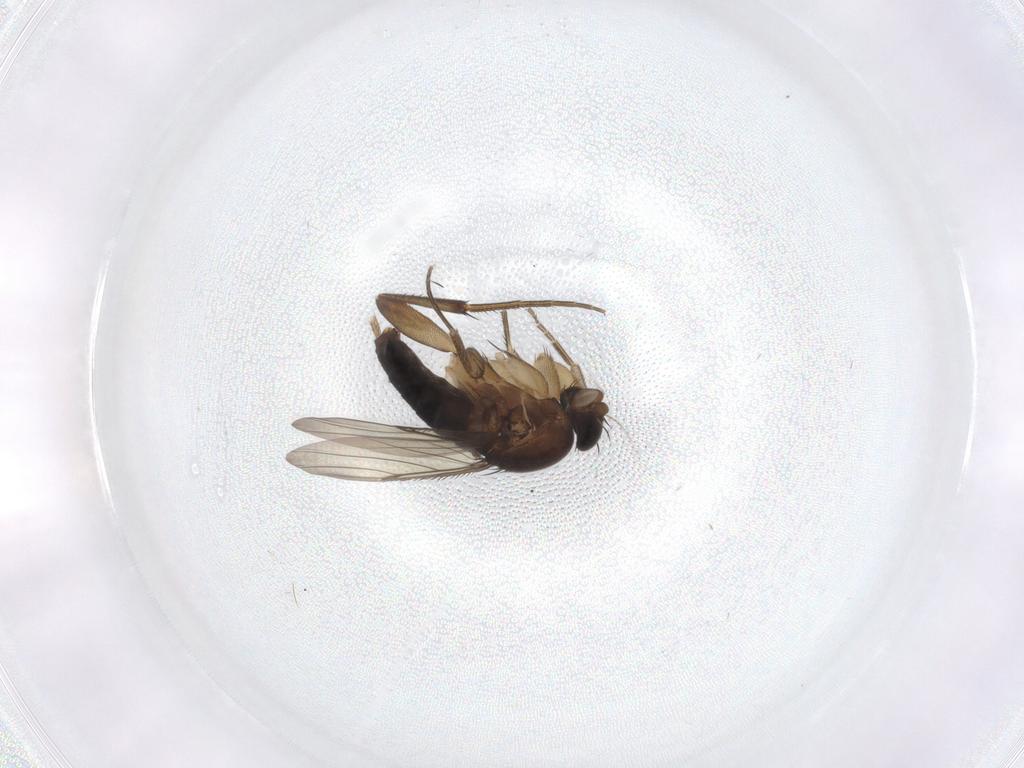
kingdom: Animalia
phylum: Arthropoda
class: Insecta
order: Diptera
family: Phoridae
